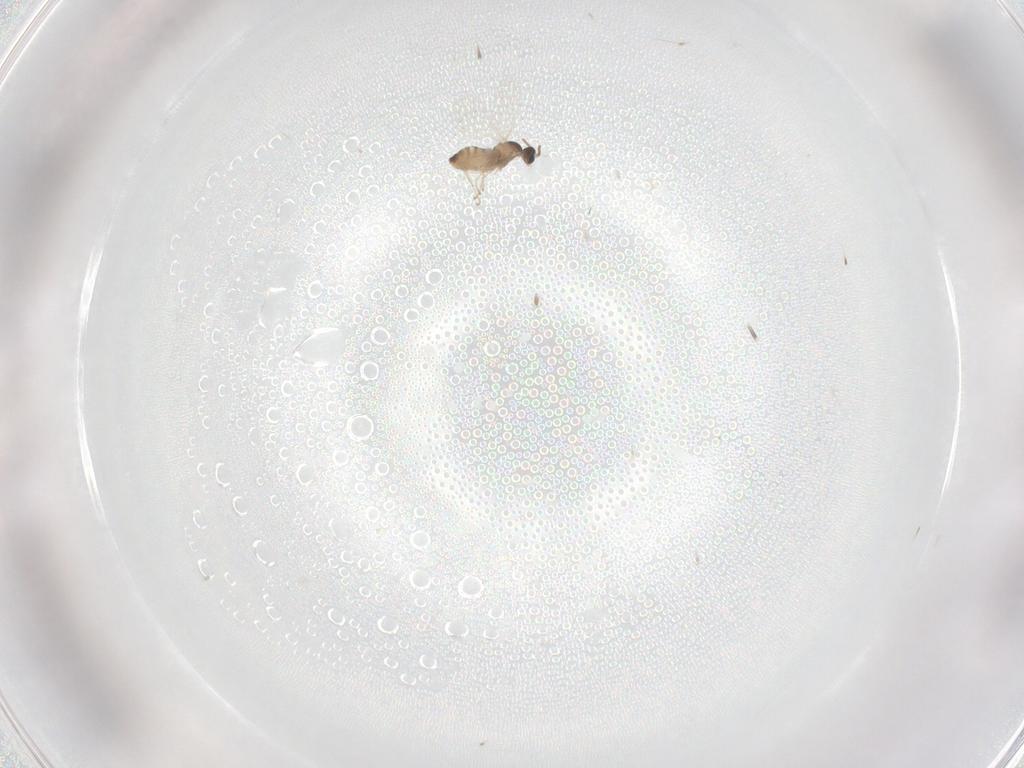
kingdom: Animalia
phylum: Arthropoda
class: Insecta
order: Diptera
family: Cecidomyiidae
